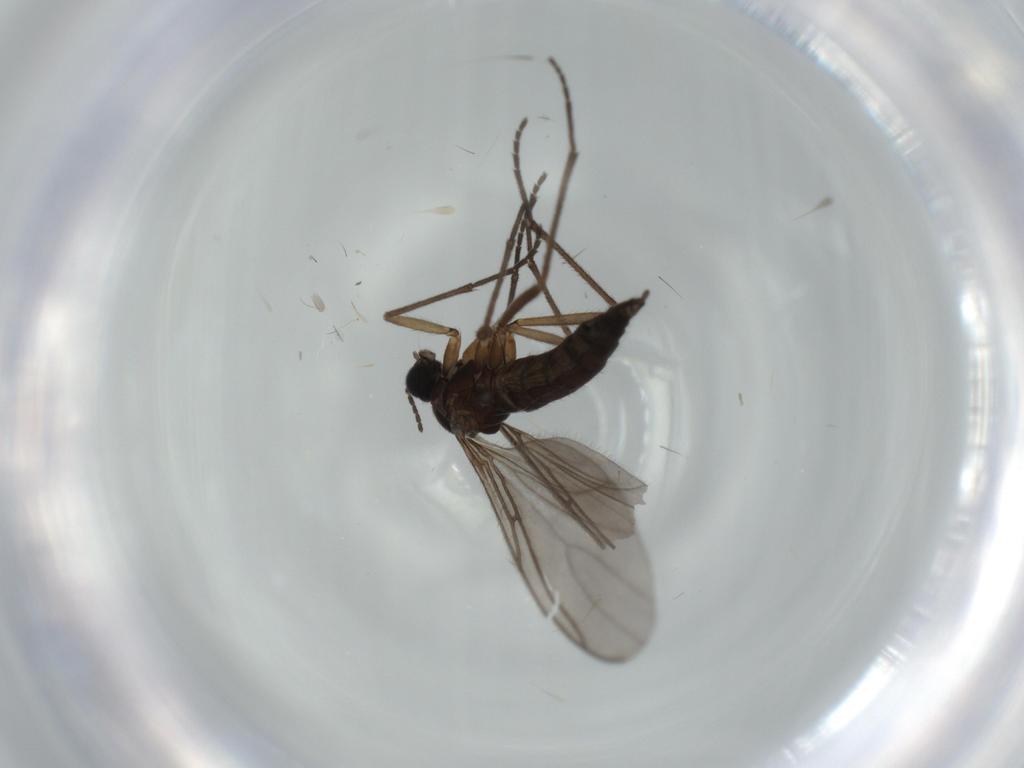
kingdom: Animalia
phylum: Arthropoda
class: Insecta
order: Diptera
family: Sciaridae
